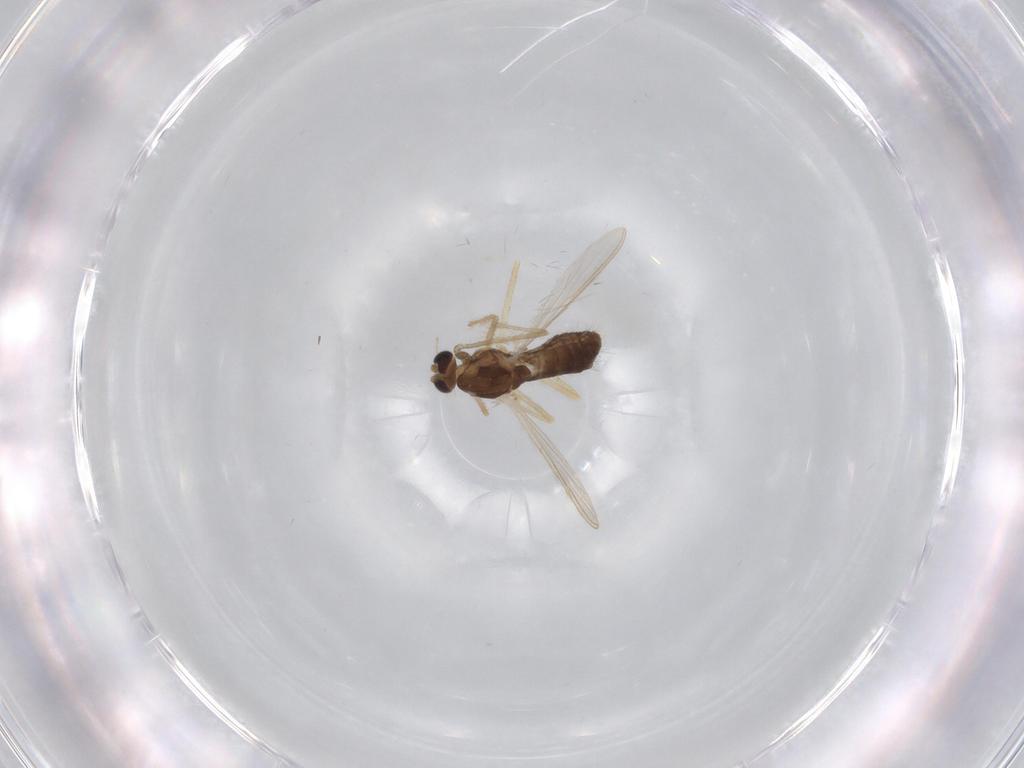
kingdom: Animalia
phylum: Arthropoda
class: Insecta
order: Diptera
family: Chironomidae
